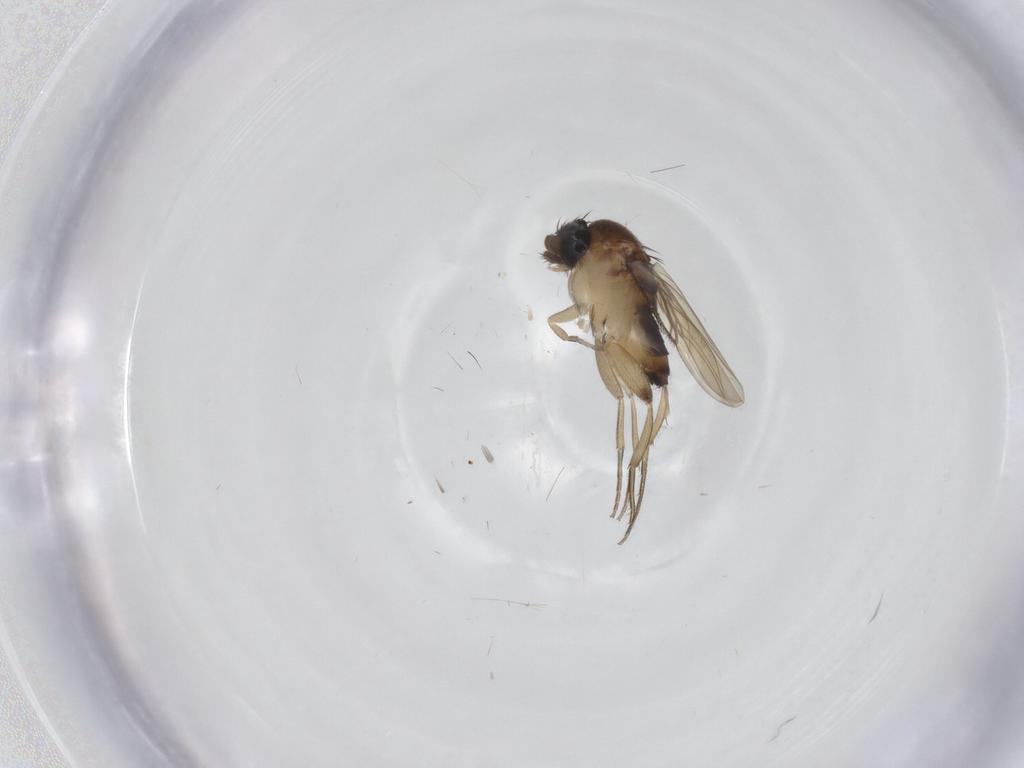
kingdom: Animalia
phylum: Arthropoda
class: Insecta
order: Diptera
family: Phoridae
